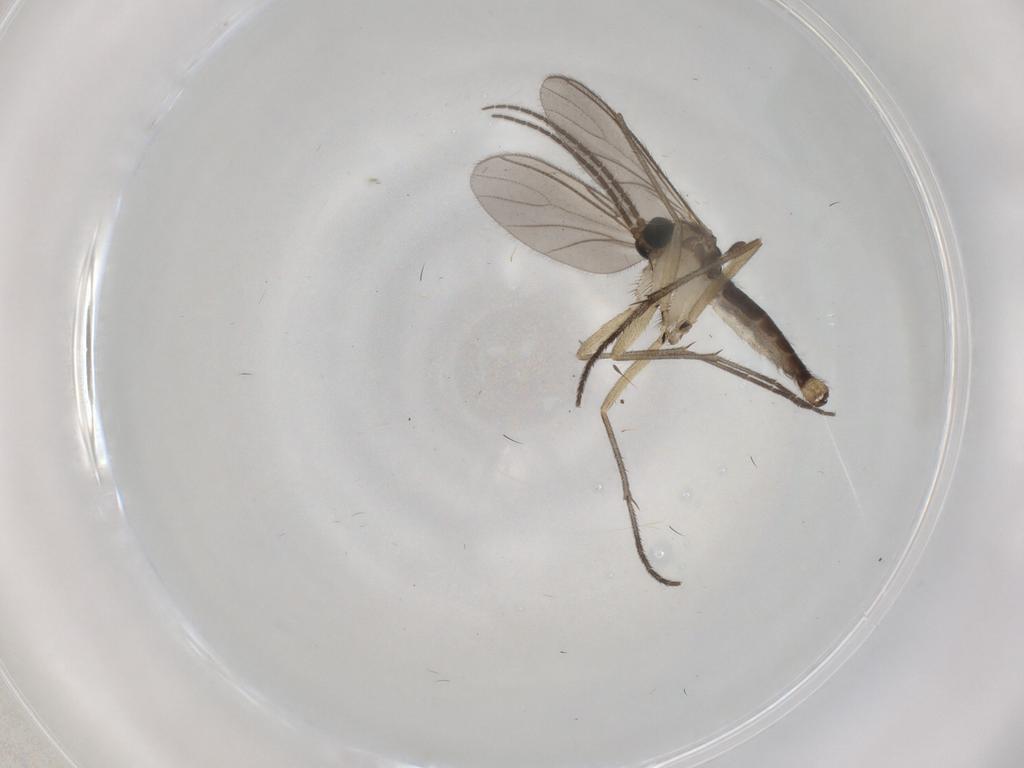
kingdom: Animalia
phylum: Arthropoda
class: Insecta
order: Diptera
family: Sciaridae
